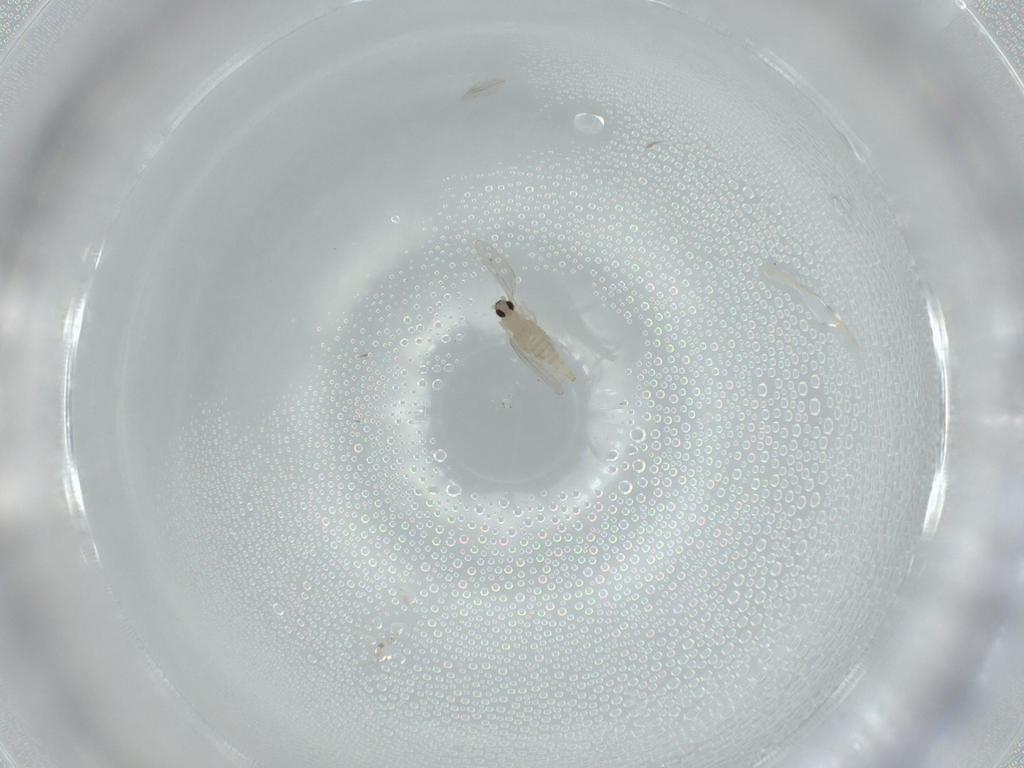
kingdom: Animalia
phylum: Arthropoda
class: Insecta
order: Diptera
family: Cecidomyiidae
